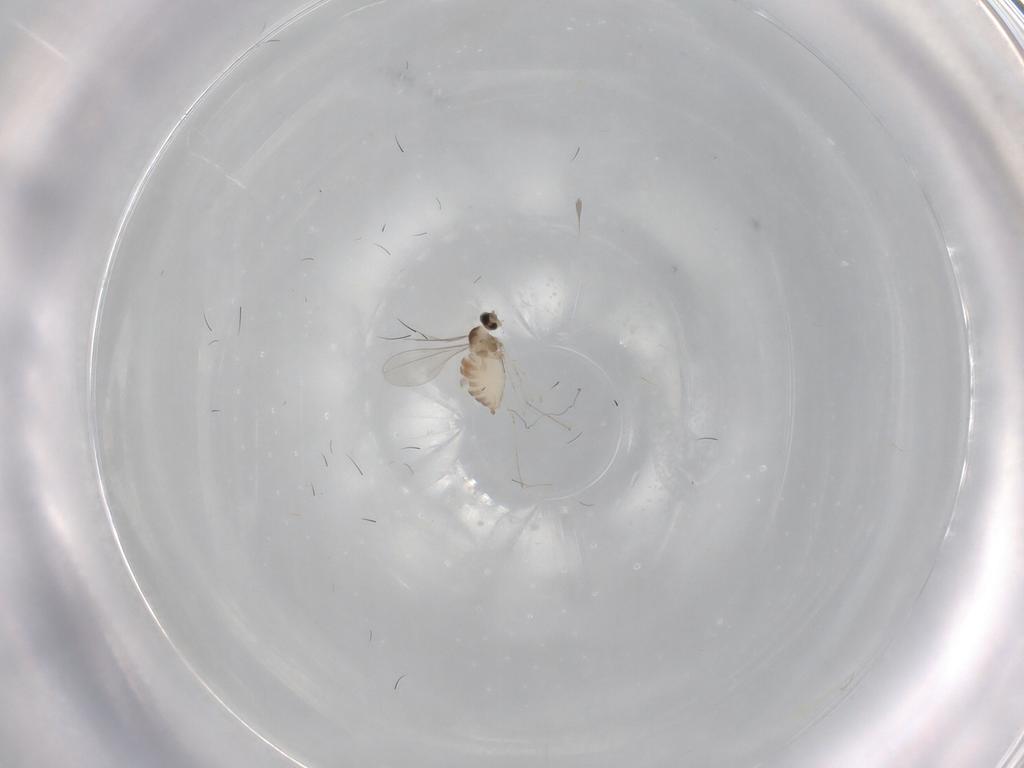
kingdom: Animalia
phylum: Arthropoda
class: Insecta
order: Diptera
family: Cecidomyiidae
